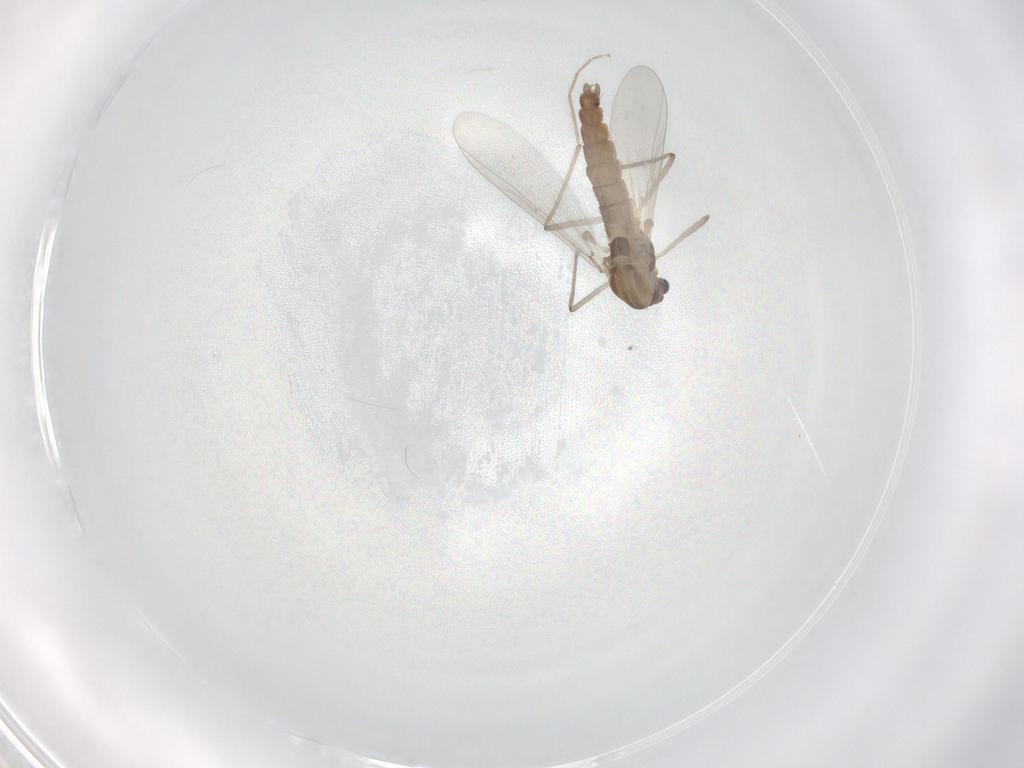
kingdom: Animalia
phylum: Arthropoda
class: Insecta
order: Diptera
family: Chironomidae
